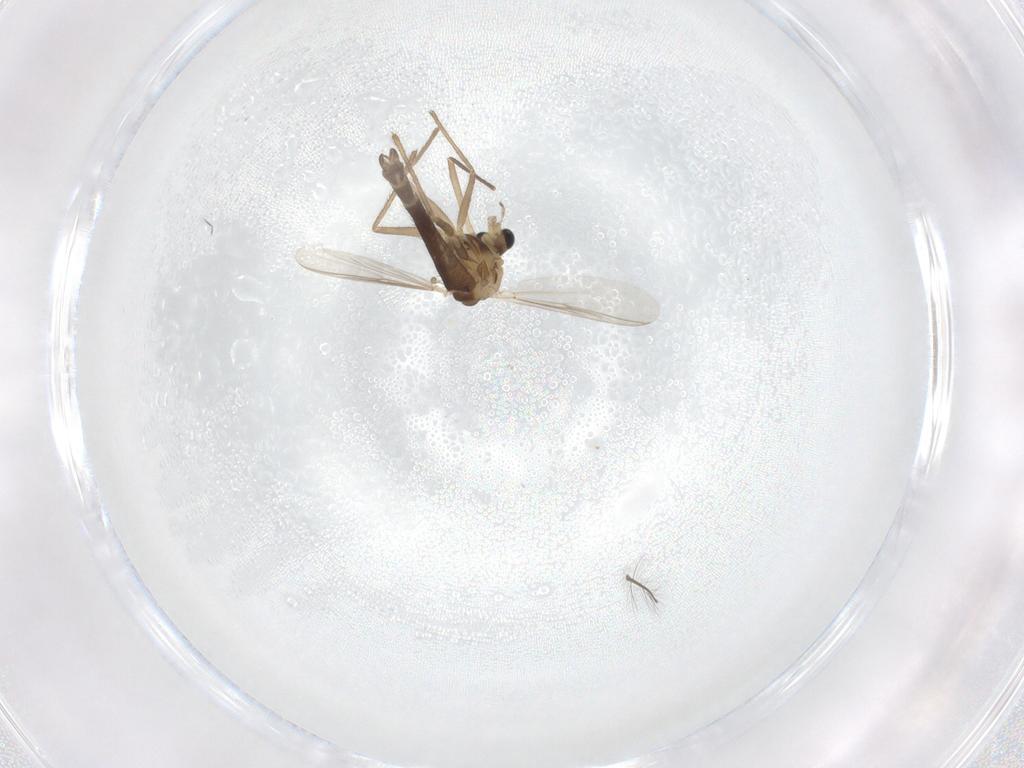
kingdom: Animalia
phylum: Arthropoda
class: Insecta
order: Diptera
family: Chironomidae
